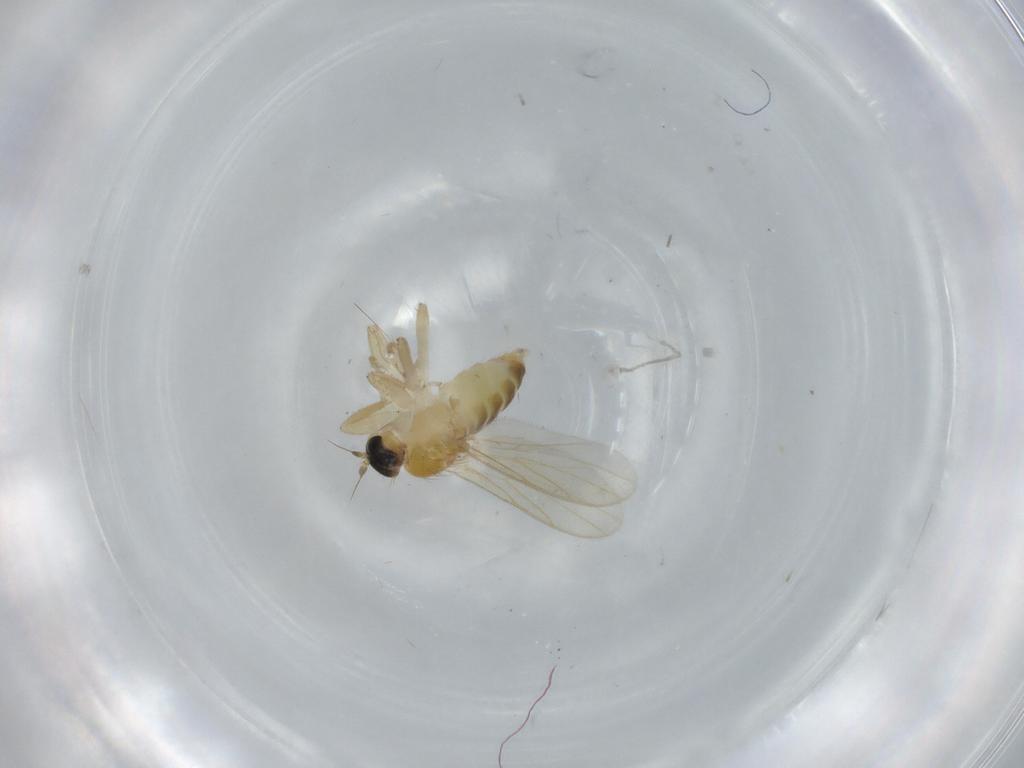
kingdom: Animalia
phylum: Arthropoda
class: Insecta
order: Diptera
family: Hybotidae
